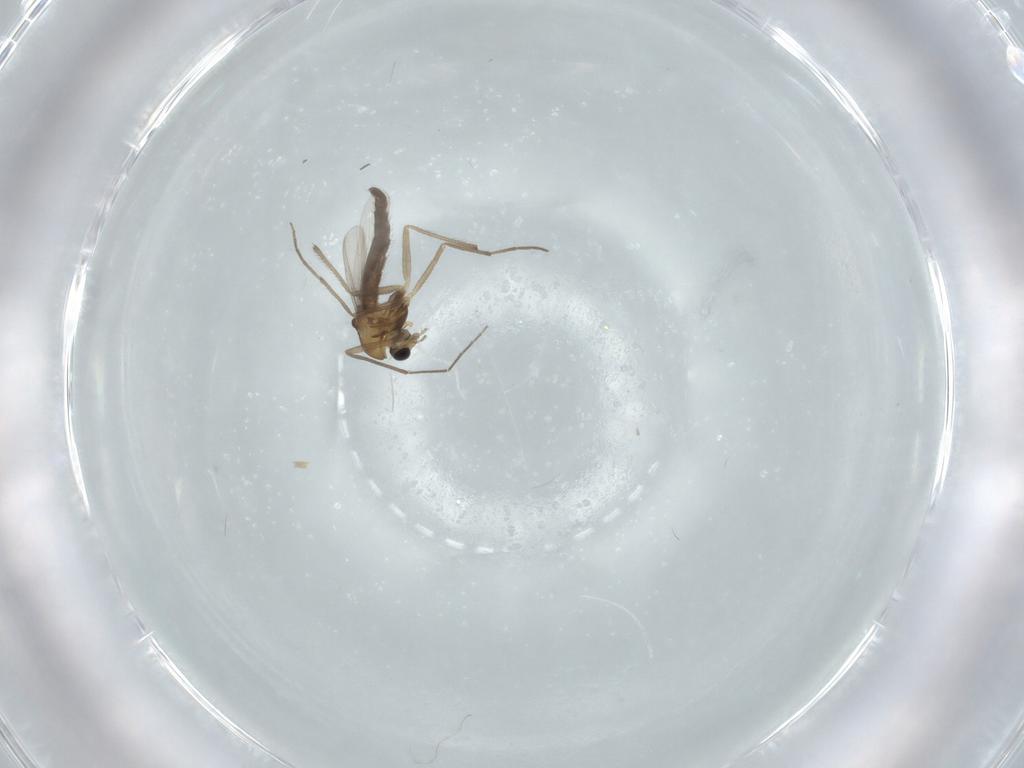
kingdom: Animalia
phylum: Arthropoda
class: Insecta
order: Diptera
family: Chironomidae
